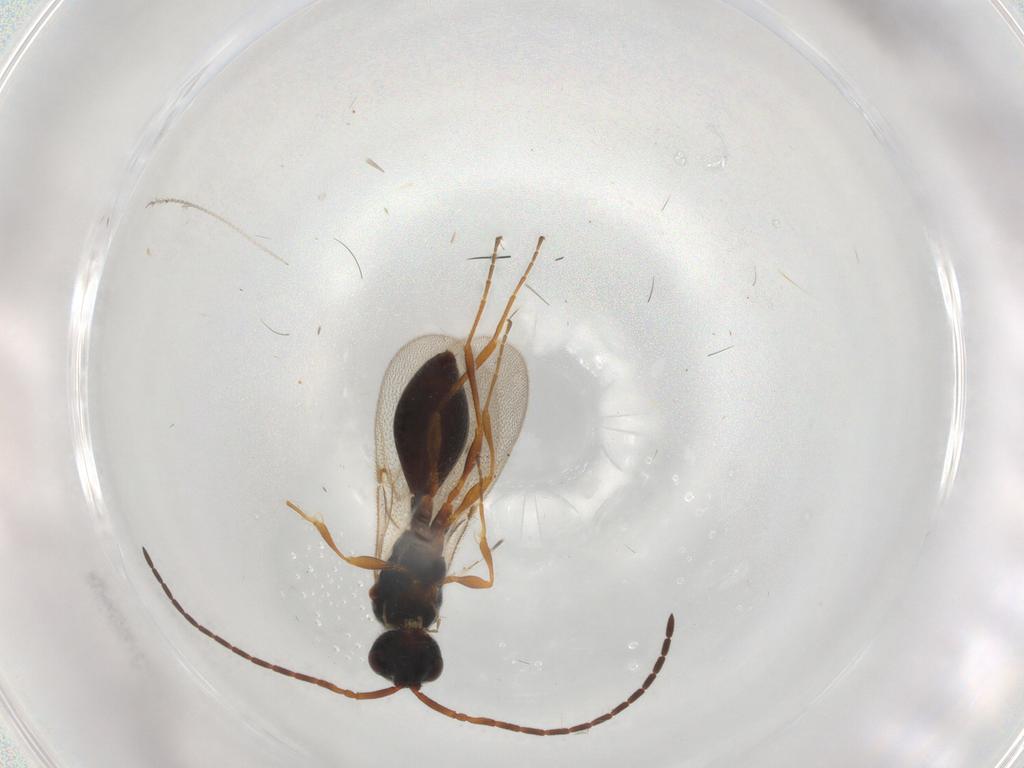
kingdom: Animalia
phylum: Arthropoda
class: Insecta
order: Hymenoptera
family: Diapriidae
